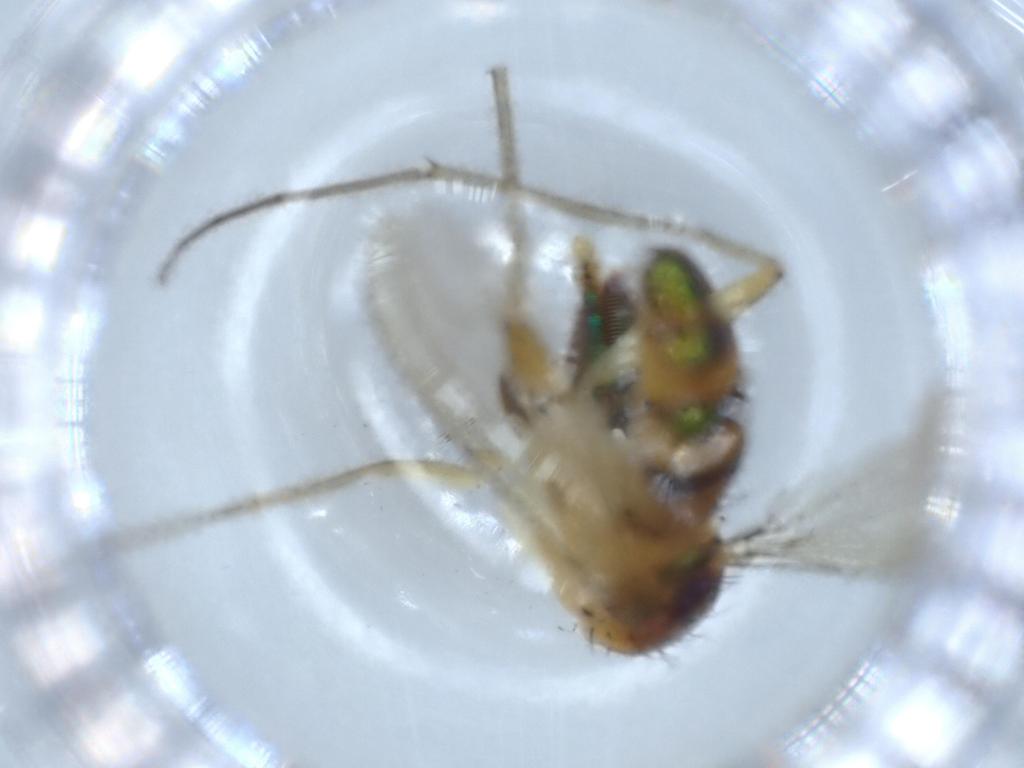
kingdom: Animalia
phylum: Arthropoda
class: Insecta
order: Diptera
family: Dolichopodidae
